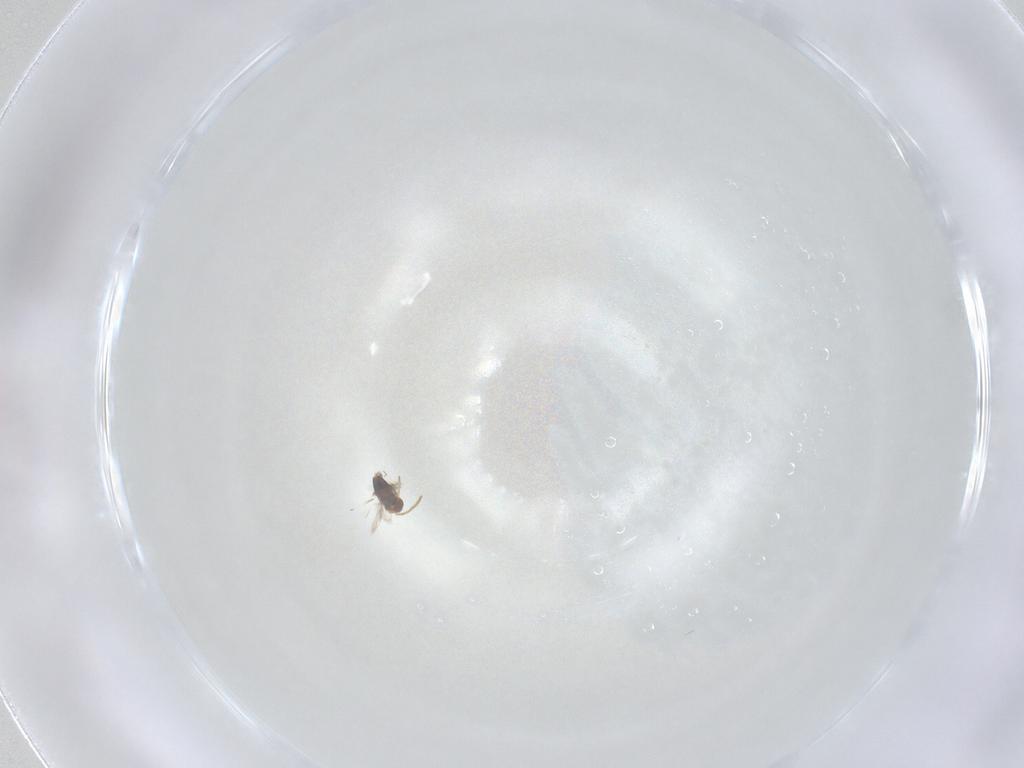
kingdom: Animalia
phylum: Arthropoda
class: Insecta
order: Hymenoptera
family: Azotidae
